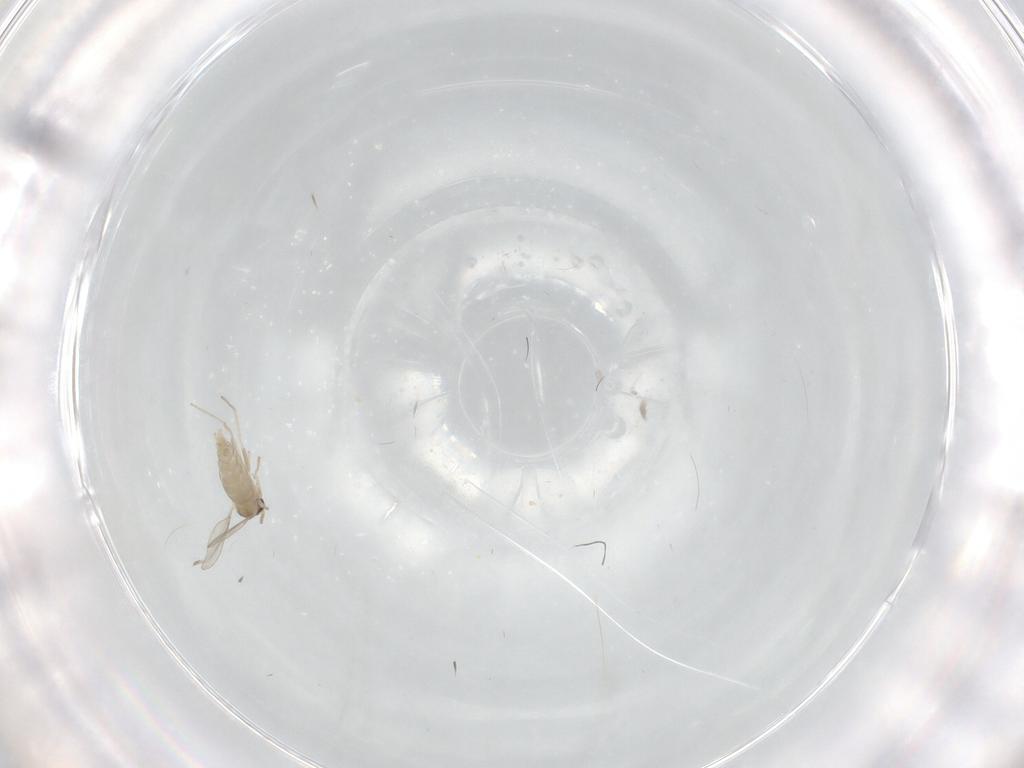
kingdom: Animalia
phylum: Arthropoda
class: Insecta
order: Diptera
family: Chironomidae
